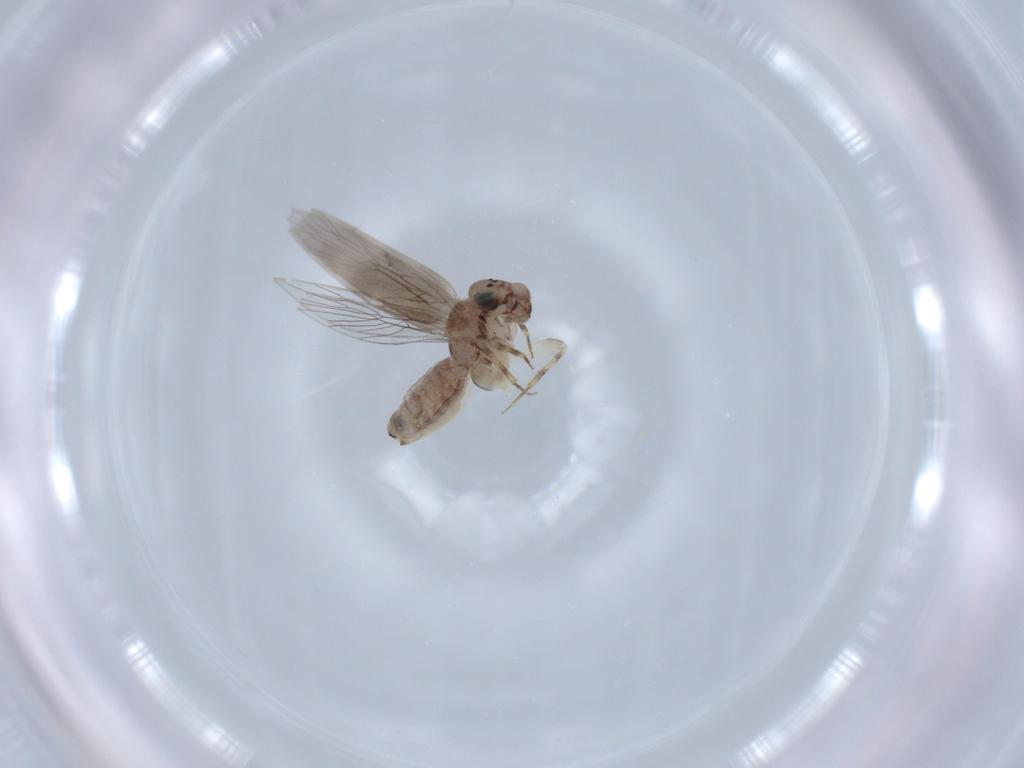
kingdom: Animalia
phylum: Arthropoda
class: Insecta
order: Psocodea
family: Lepidopsocidae
